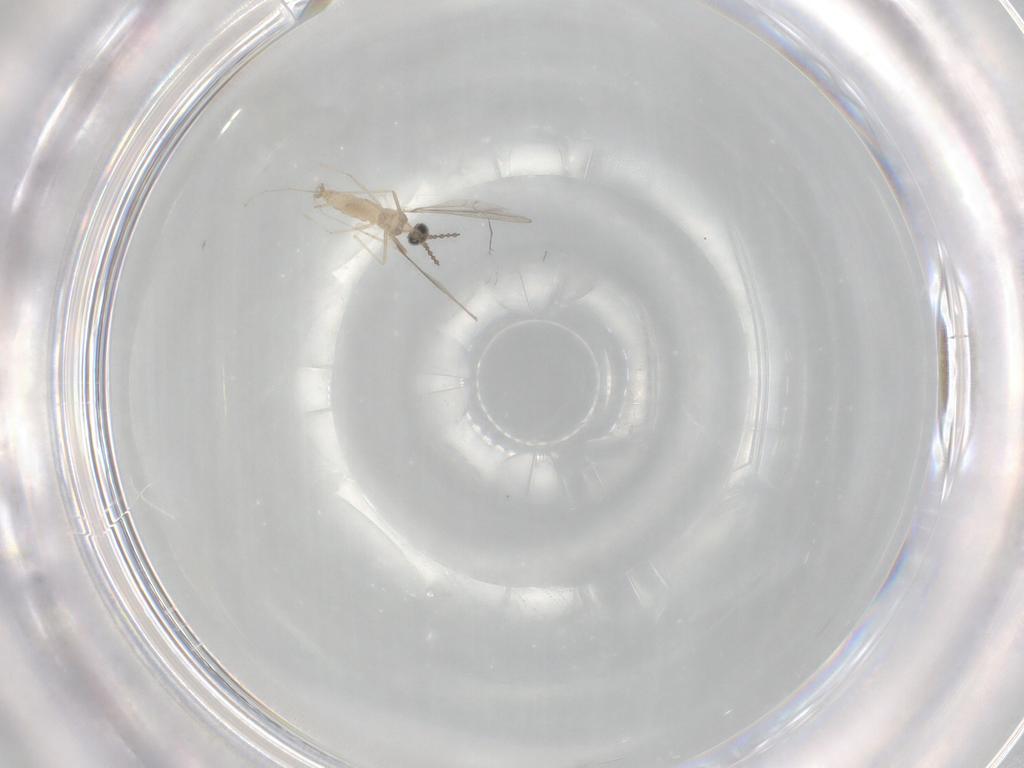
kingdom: Animalia
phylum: Arthropoda
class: Insecta
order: Diptera
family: Cecidomyiidae
